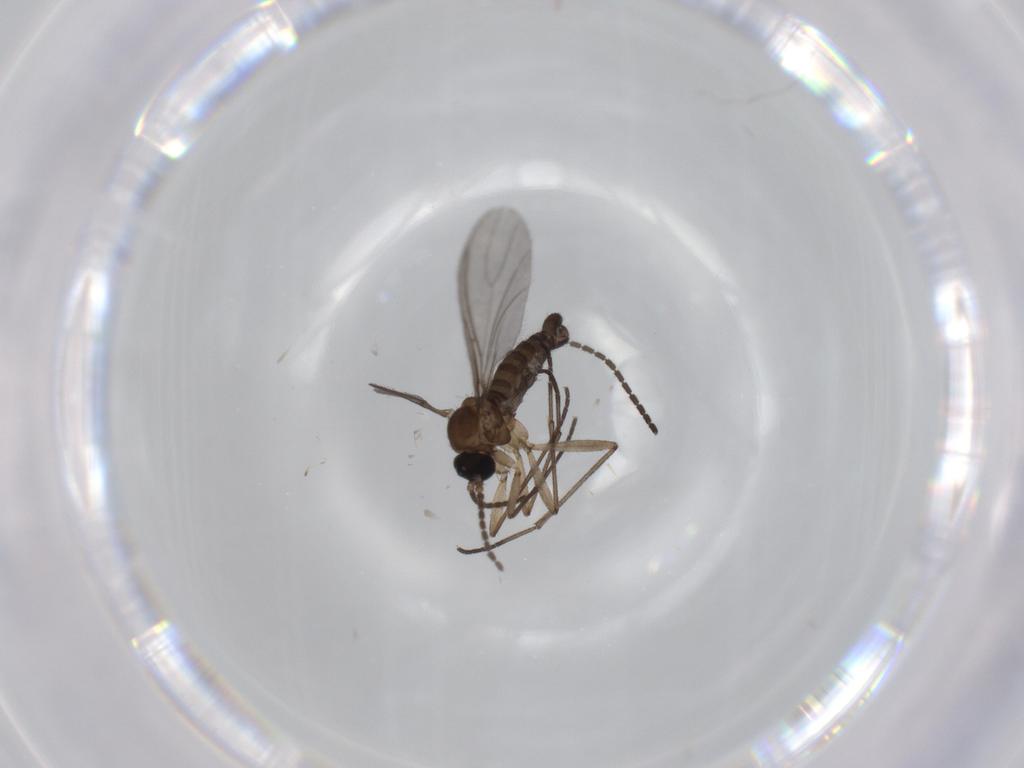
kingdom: Animalia
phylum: Arthropoda
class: Insecta
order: Diptera
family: Sciaridae
